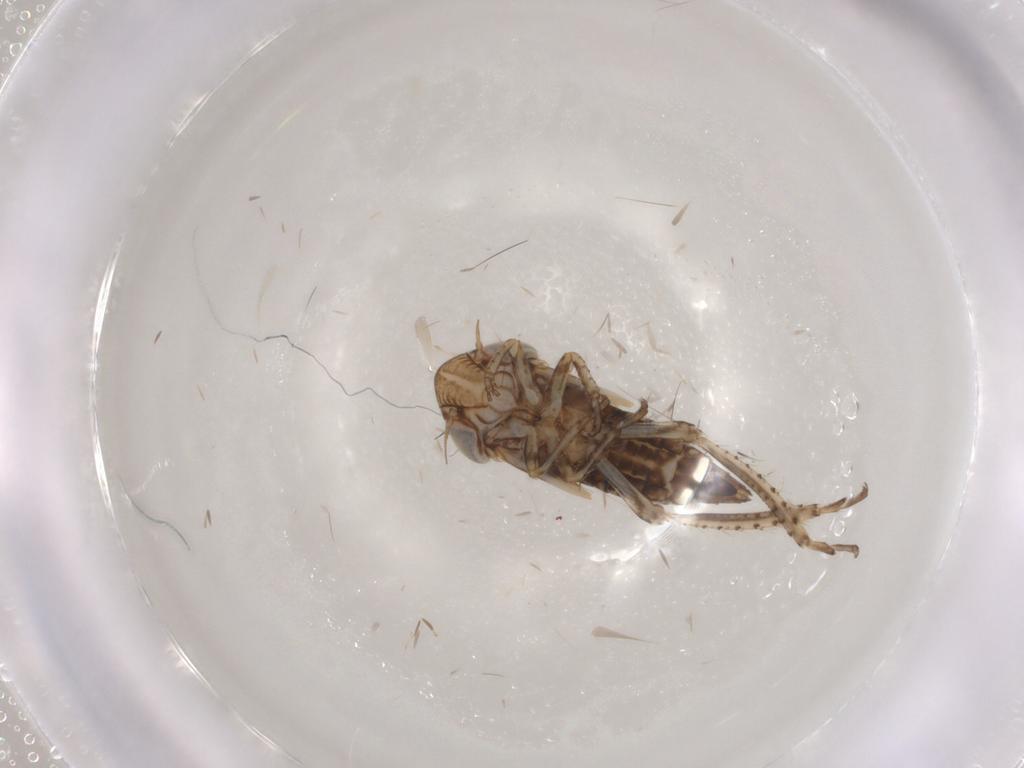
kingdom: Animalia
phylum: Arthropoda
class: Insecta
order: Hemiptera
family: Cicadellidae
